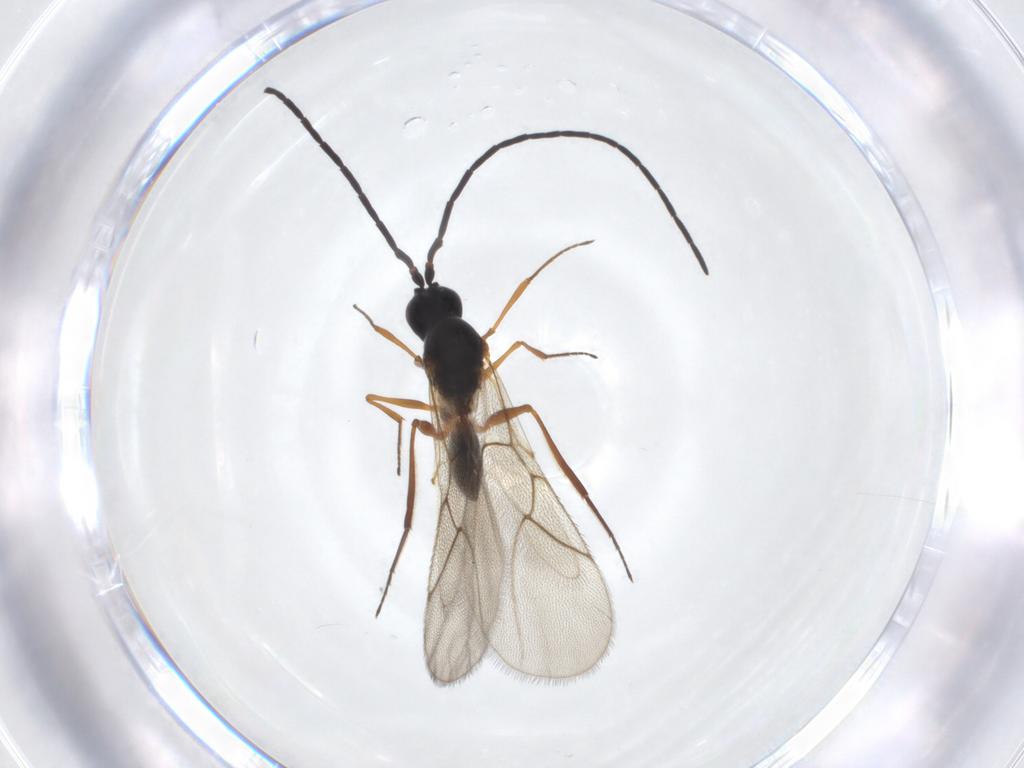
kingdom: Animalia
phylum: Arthropoda
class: Insecta
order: Hymenoptera
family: Figitidae
